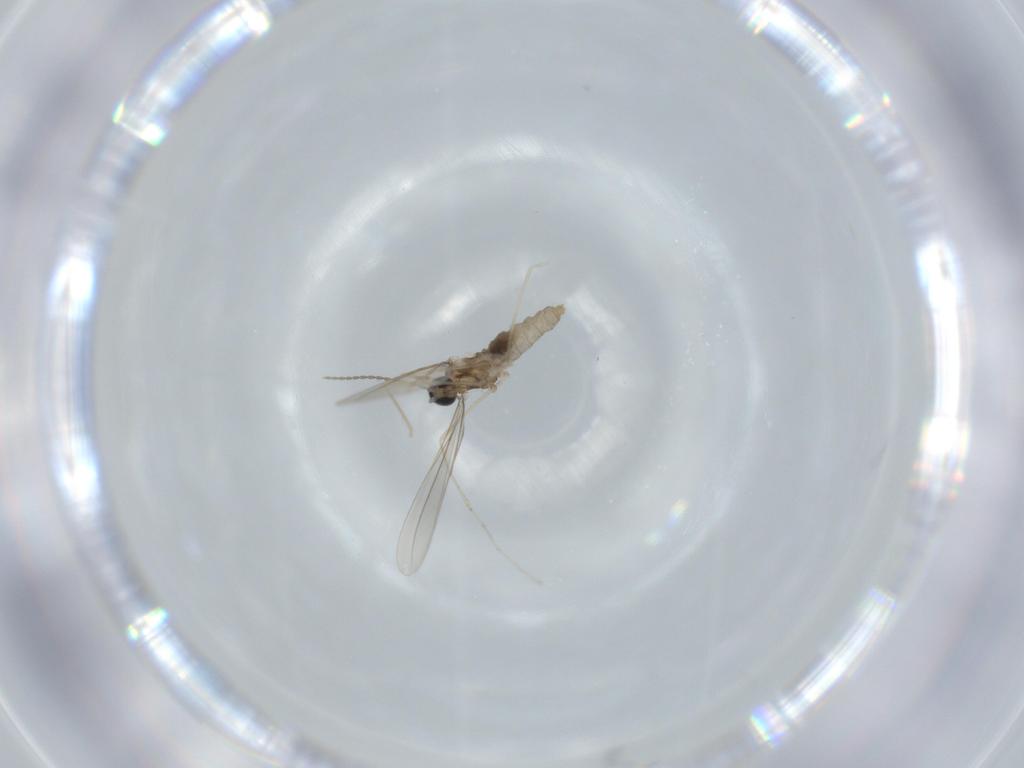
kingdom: Animalia
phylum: Arthropoda
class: Insecta
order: Diptera
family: Cecidomyiidae
